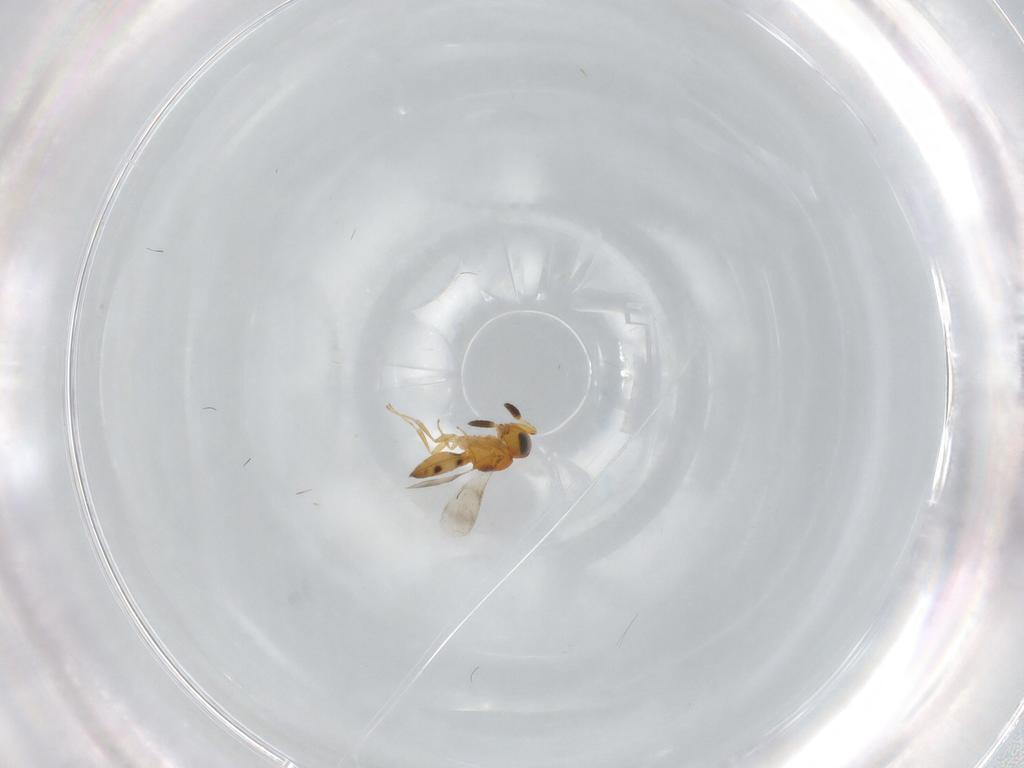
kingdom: Animalia
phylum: Arthropoda
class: Insecta
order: Hymenoptera
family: Scelionidae
